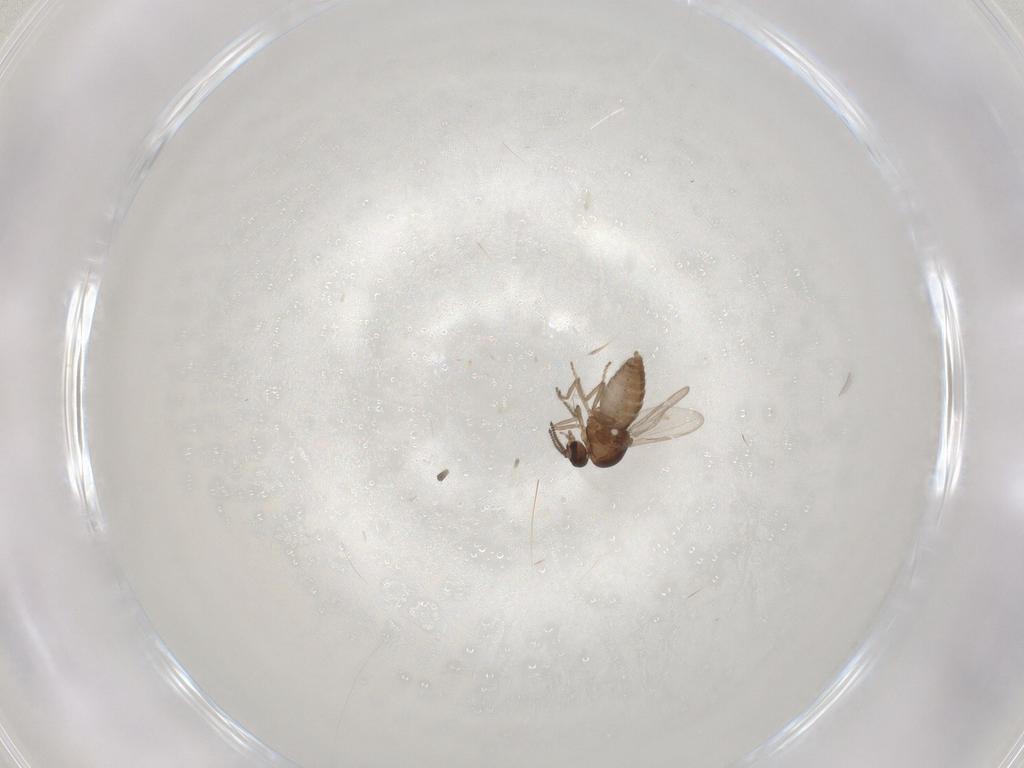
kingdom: Animalia
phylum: Arthropoda
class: Insecta
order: Diptera
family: Ceratopogonidae
